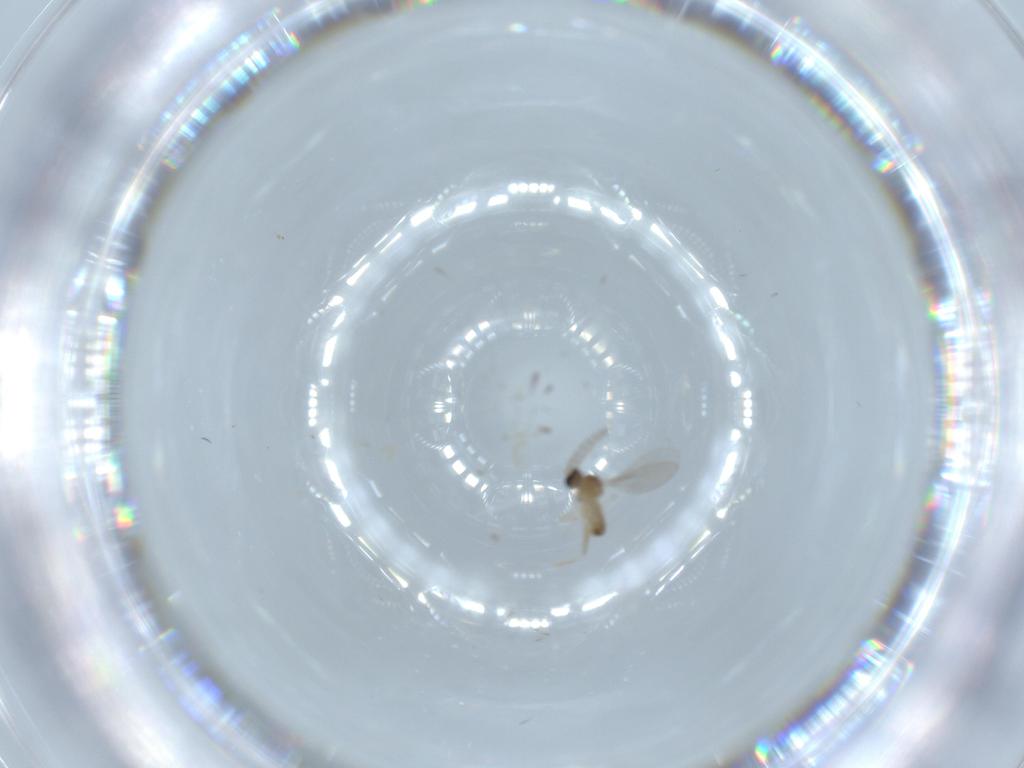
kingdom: Animalia
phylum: Arthropoda
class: Insecta
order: Diptera
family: Cecidomyiidae
